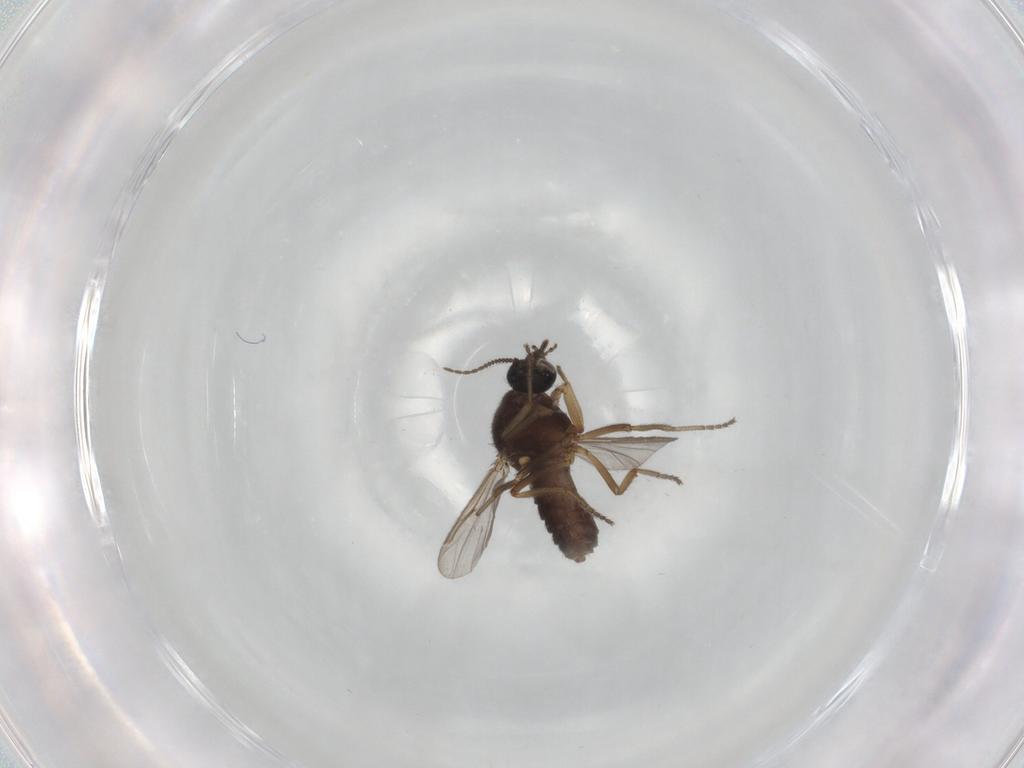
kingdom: Animalia
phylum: Arthropoda
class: Insecta
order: Diptera
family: Ceratopogonidae
